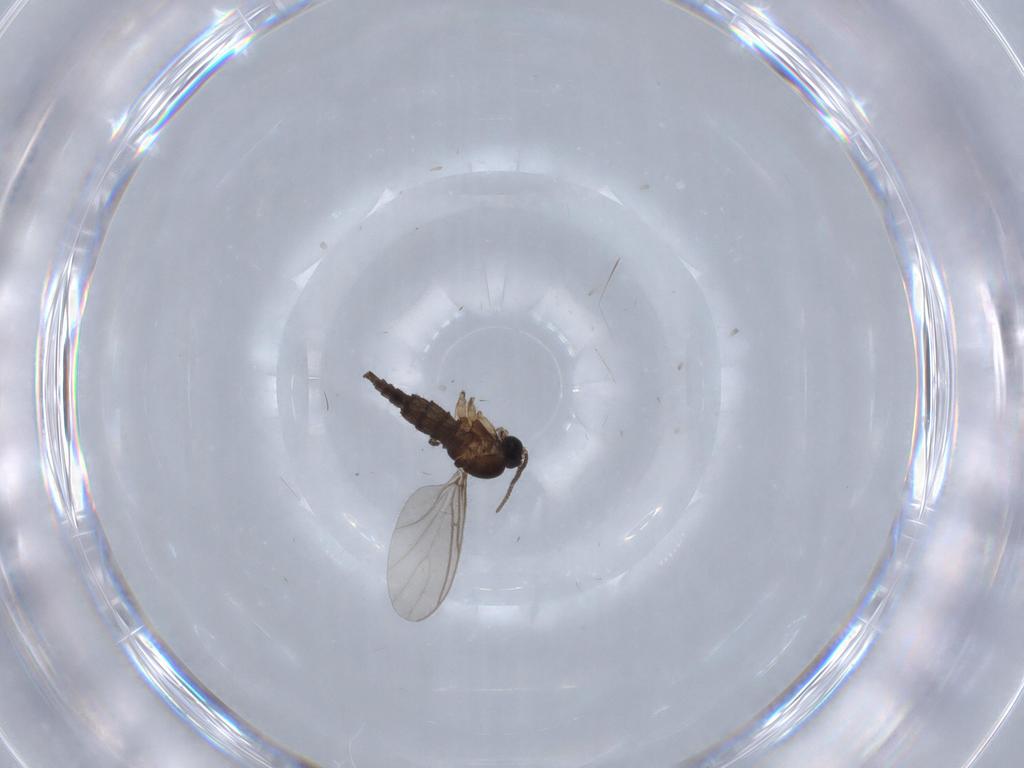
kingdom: Animalia
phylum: Arthropoda
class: Insecta
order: Diptera
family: Sciaridae
